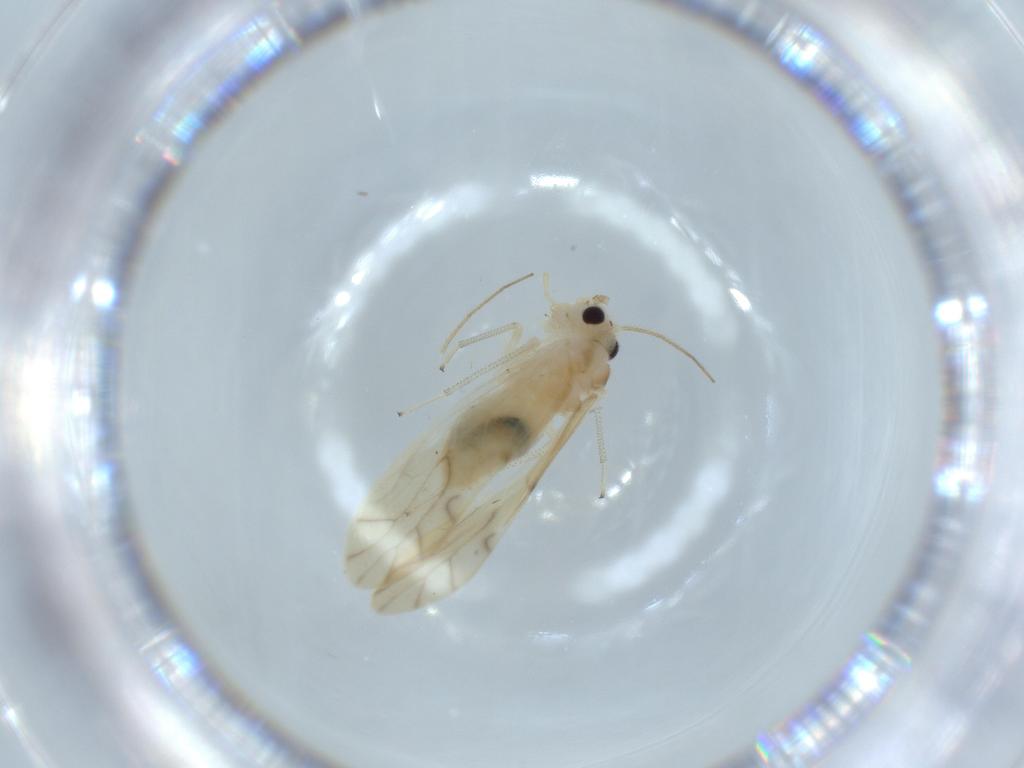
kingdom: Animalia
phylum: Arthropoda
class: Insecta
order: Psocodea
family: Caeciliusidae
